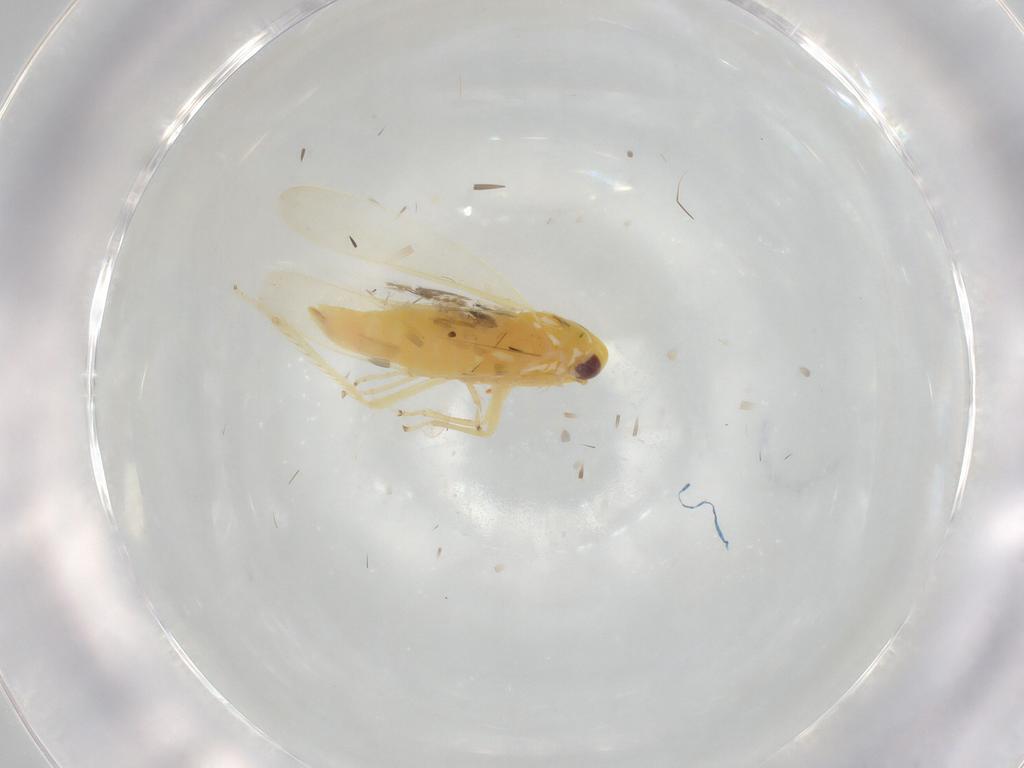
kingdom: Animalia
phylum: Arthropoda
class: Insecta
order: Hemiptera
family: Cicadellidae
